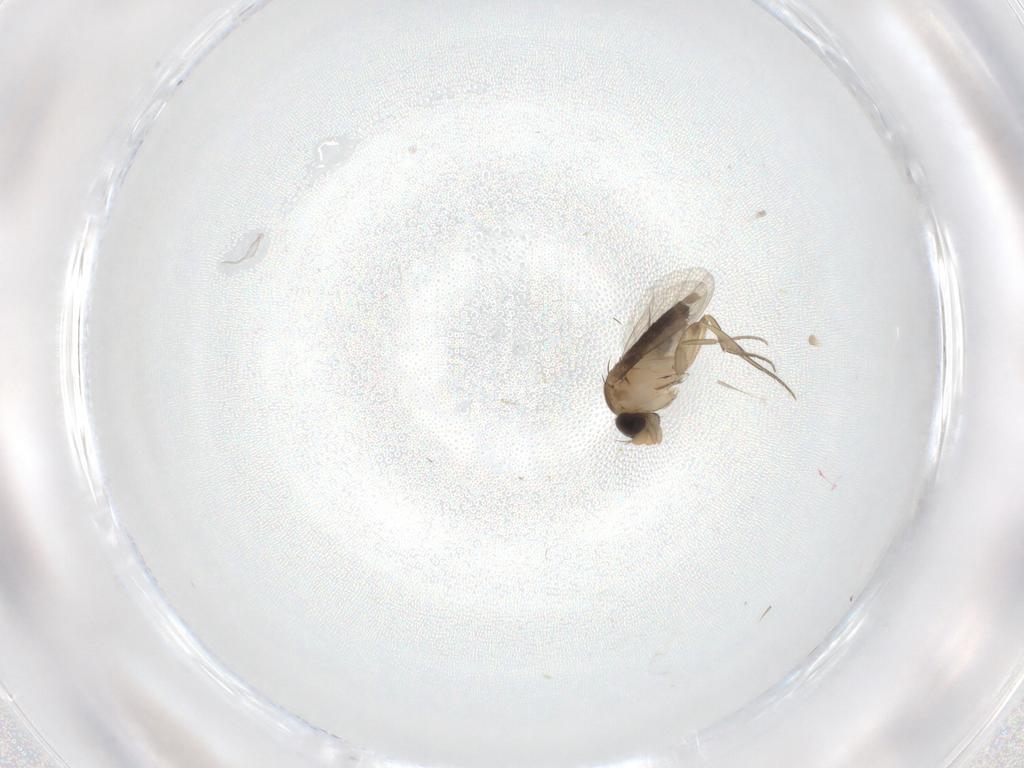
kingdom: Animalia
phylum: Arthropoda
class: Insecta
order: Diptera
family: Phoridae
